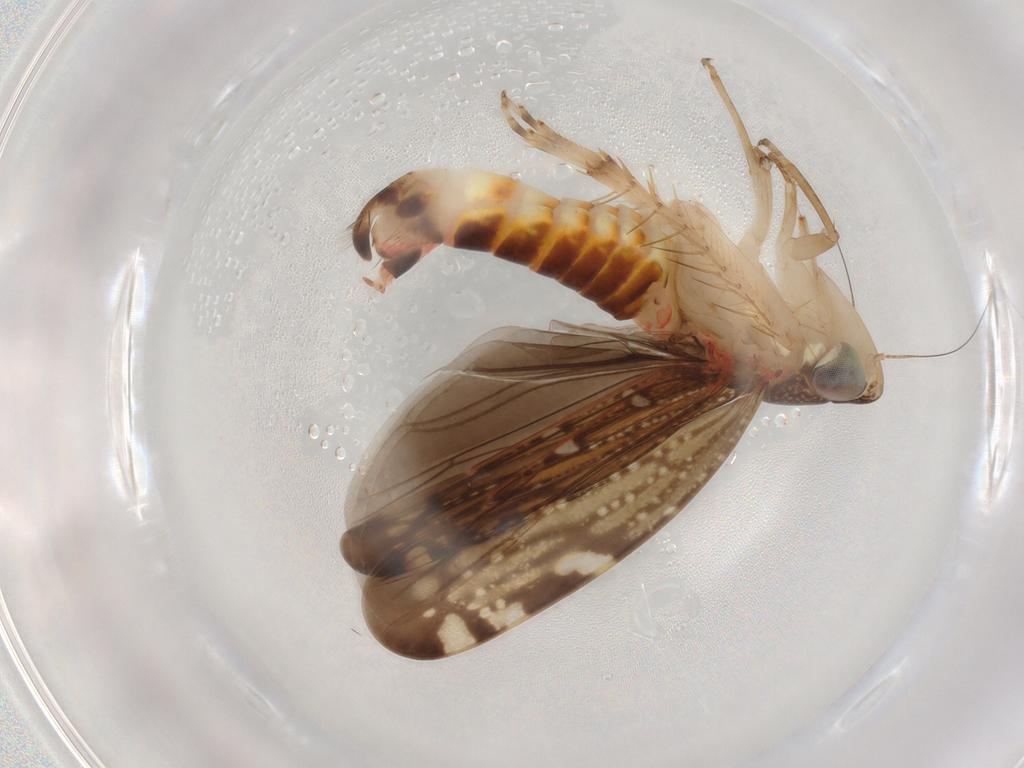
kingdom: Animalia
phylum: Arthropoda
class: Insecta
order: Hemiptera
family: Cicadellidae
